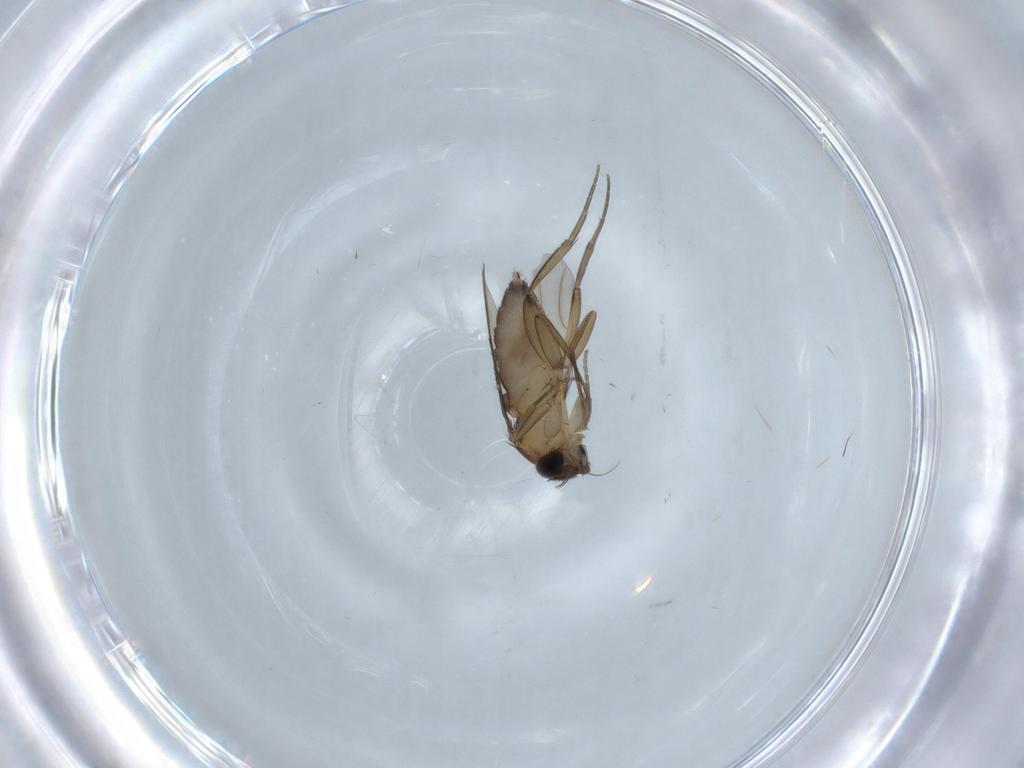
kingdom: Animalia
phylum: Arthropoda
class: Insecta
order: Diptera
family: Phoridae
